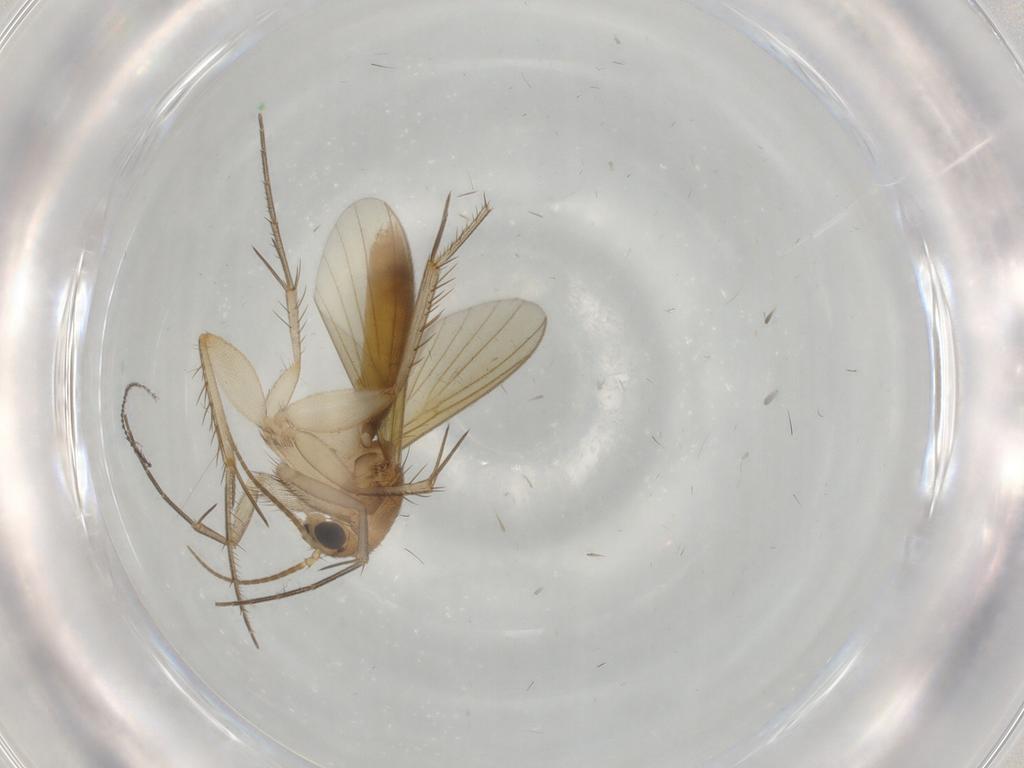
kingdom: Animalia
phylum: Arthropoda
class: Insecta
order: Diptera
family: Mycetophilidae
